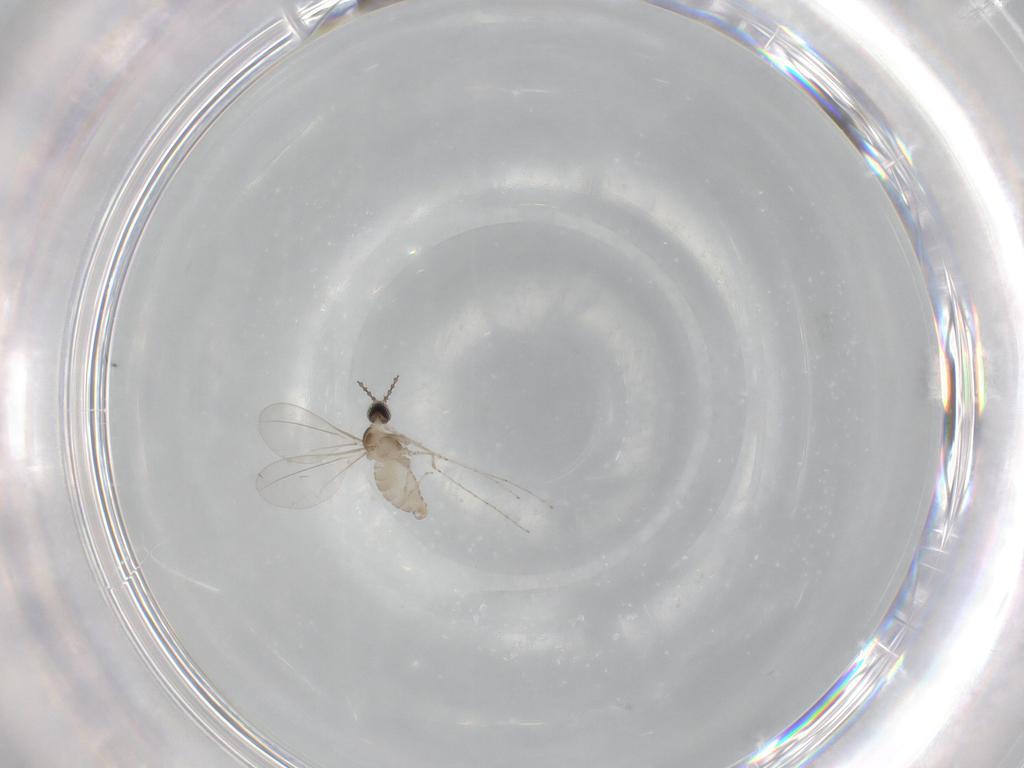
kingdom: Animalia
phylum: Arthropoda
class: Insecta
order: Diptera
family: Cecidomyiidae
